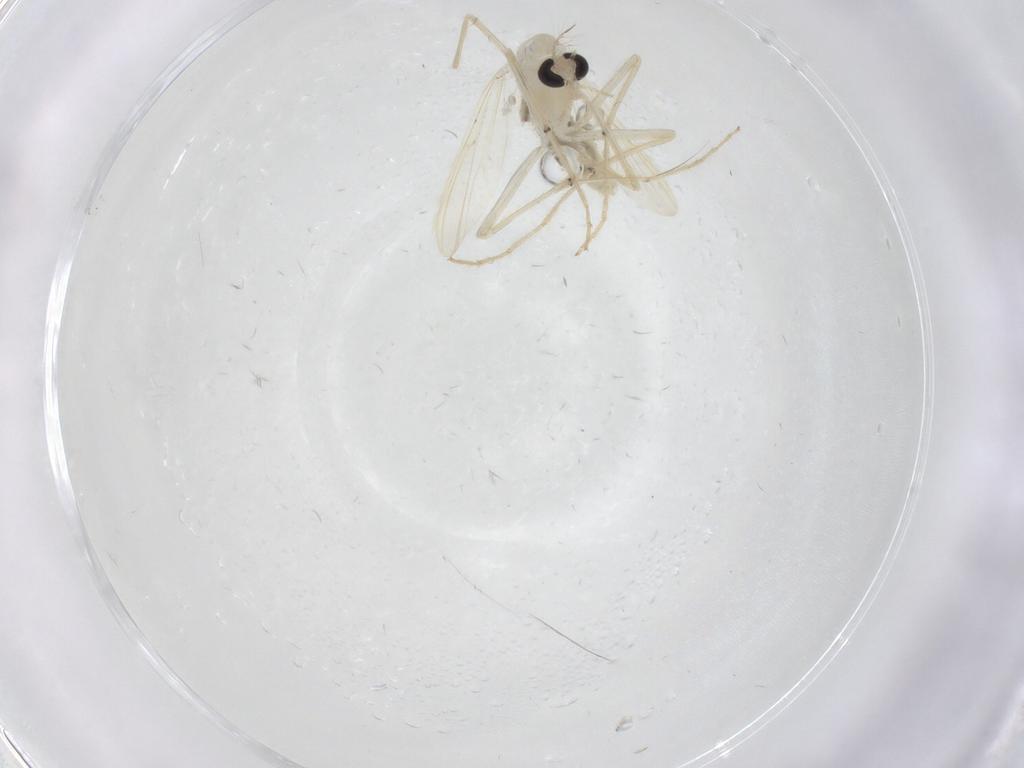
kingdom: Animalia
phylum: Arthropoda
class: Insecta
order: Diptera
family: Chironomidae
